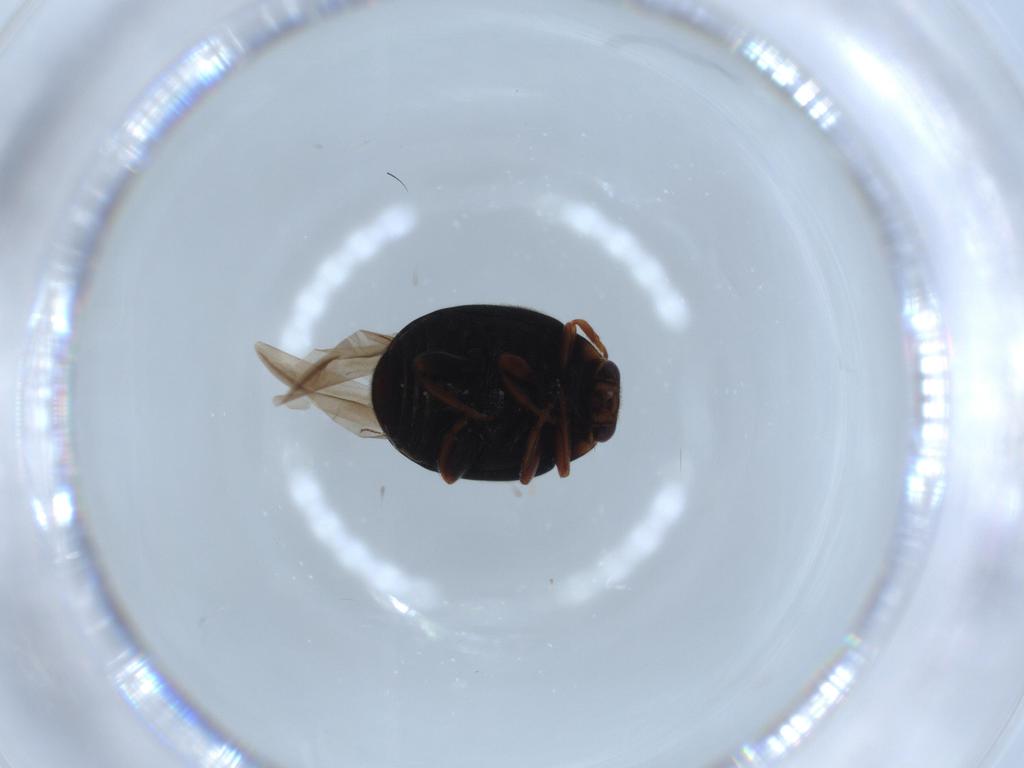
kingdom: Animalia
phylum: Arthropoda
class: Insecta
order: Coleoptera
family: Coccinellidae
